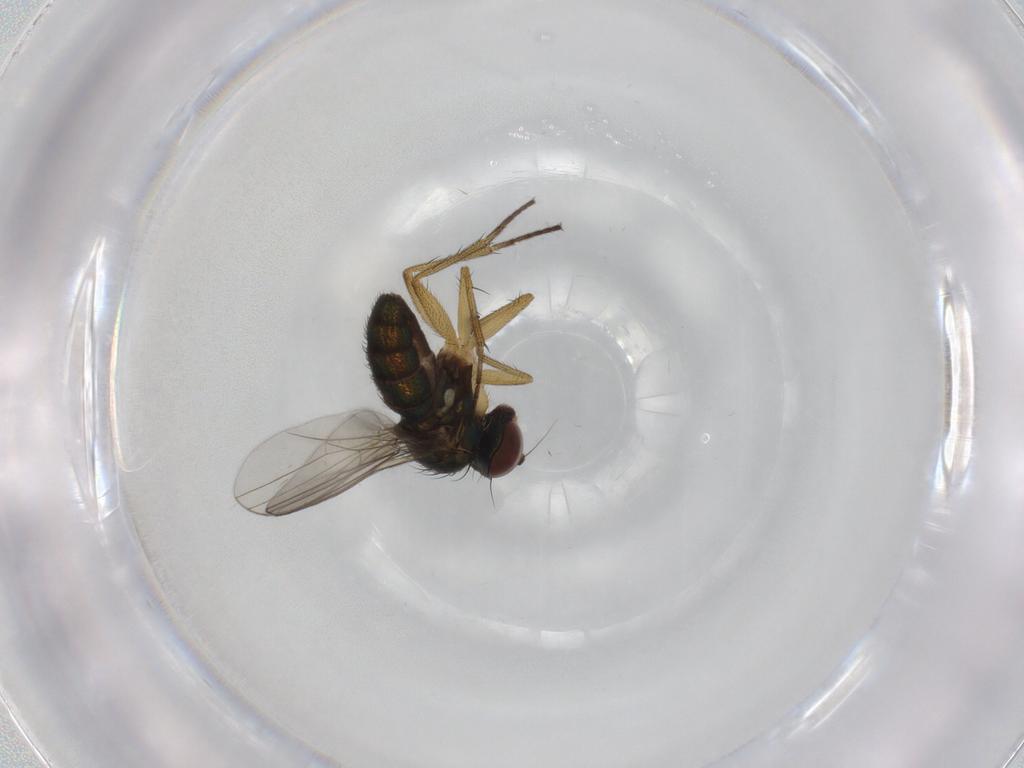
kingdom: Animalia
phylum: Arthropoda
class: Insecta
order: Diptera
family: Dolichopodidae
